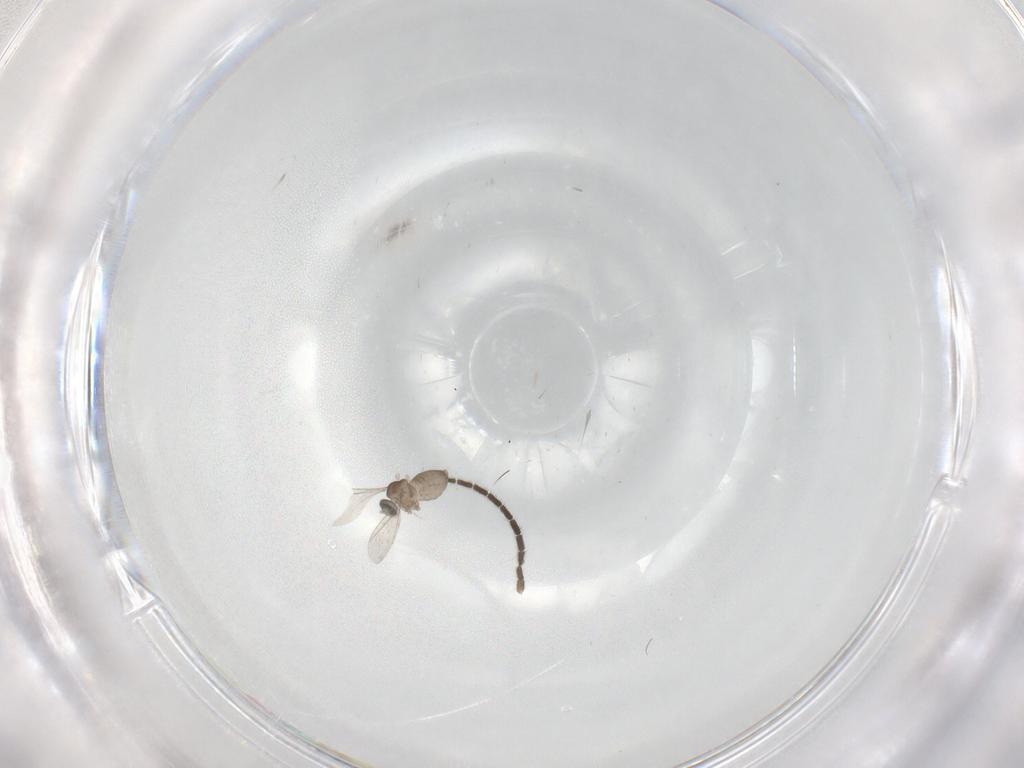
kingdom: Animalia
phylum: Arthropoda
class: Insecta
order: Diptera
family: Cecidomyiidae
